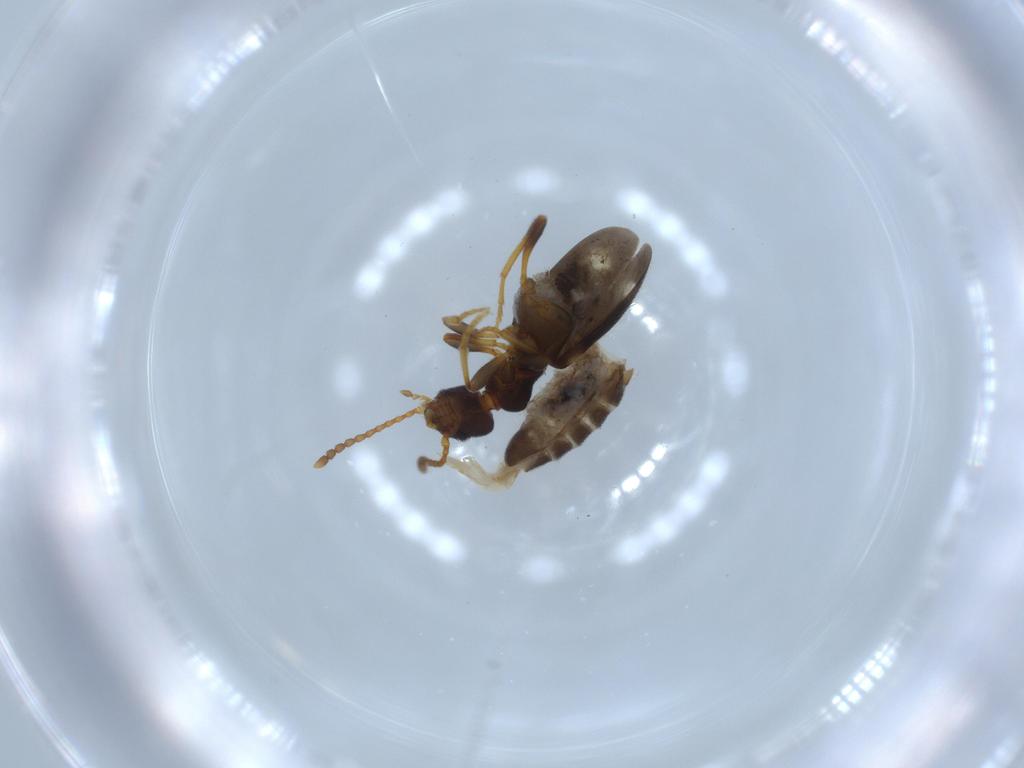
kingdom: Animalia
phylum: Arthropoda
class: Insecta
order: Coleoptera
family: Anthicidae
